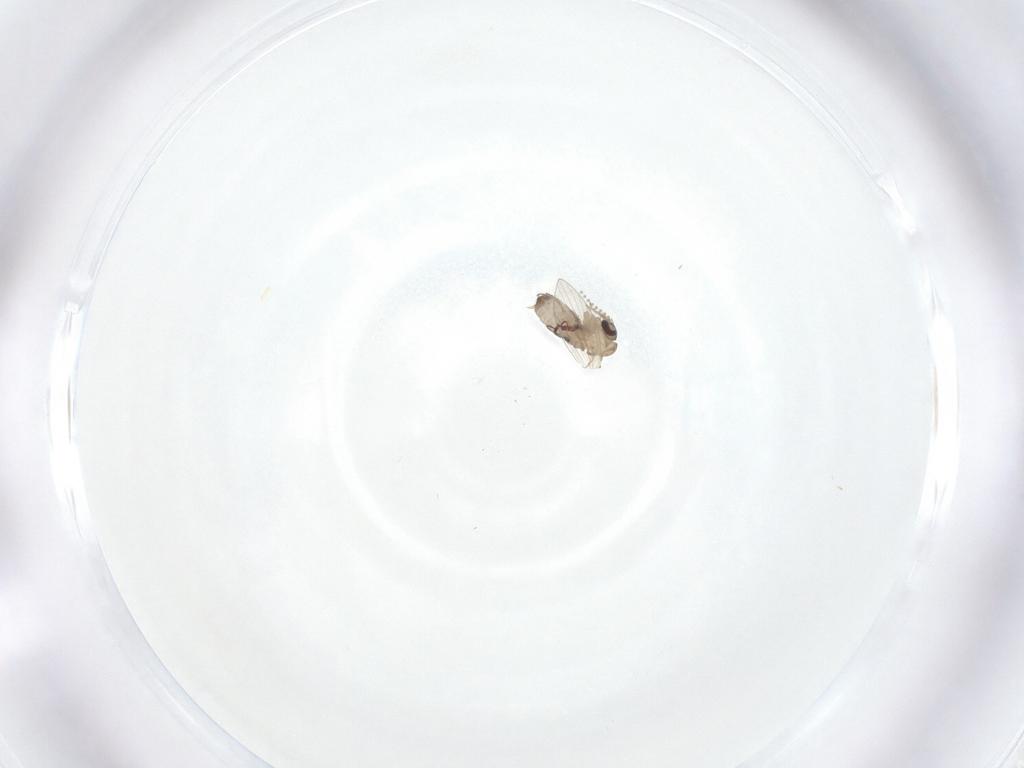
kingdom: Animalia
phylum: Arthropoda
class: Insecta
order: Diptera
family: Psychodidae
